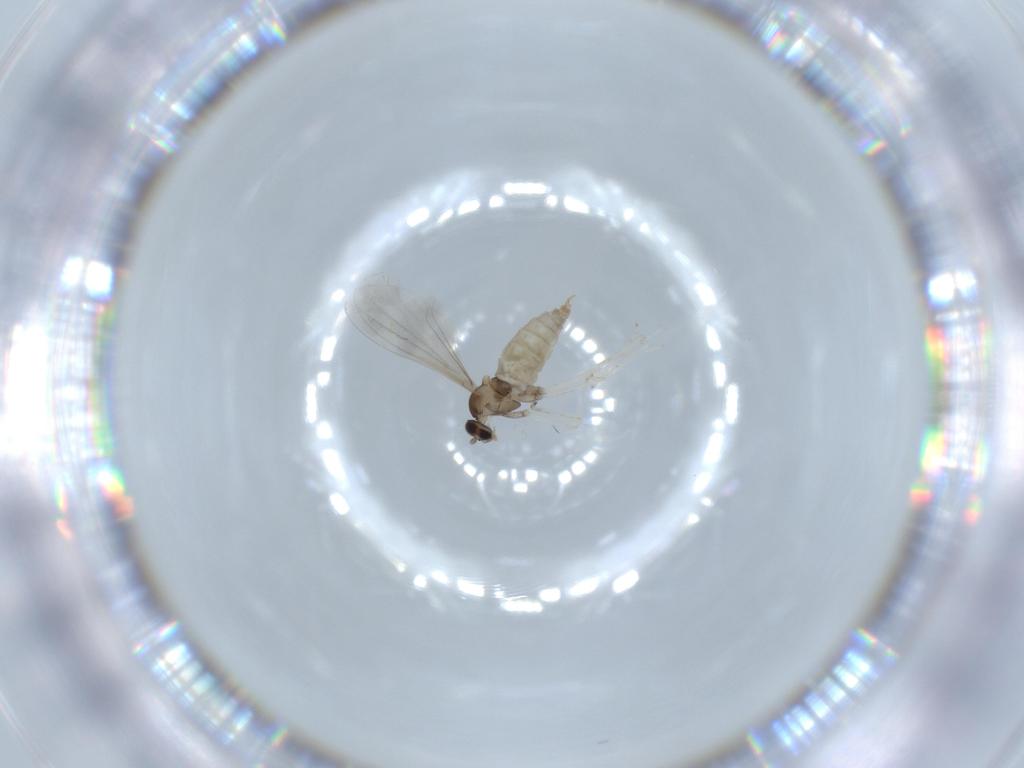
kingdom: Animalia
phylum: Arthropoda
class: Insecta
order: Diptera
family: Cecidomyiidae
